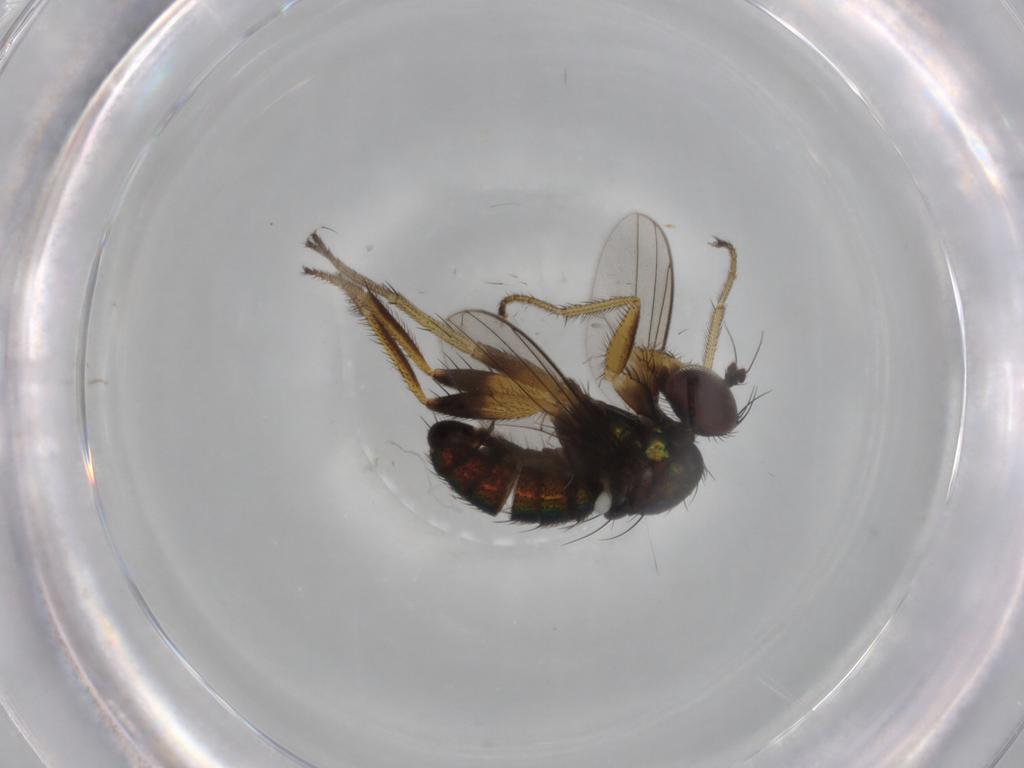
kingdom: Animalia
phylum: Arthropoda
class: Insecta
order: Diptera
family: Dolichopodidae
